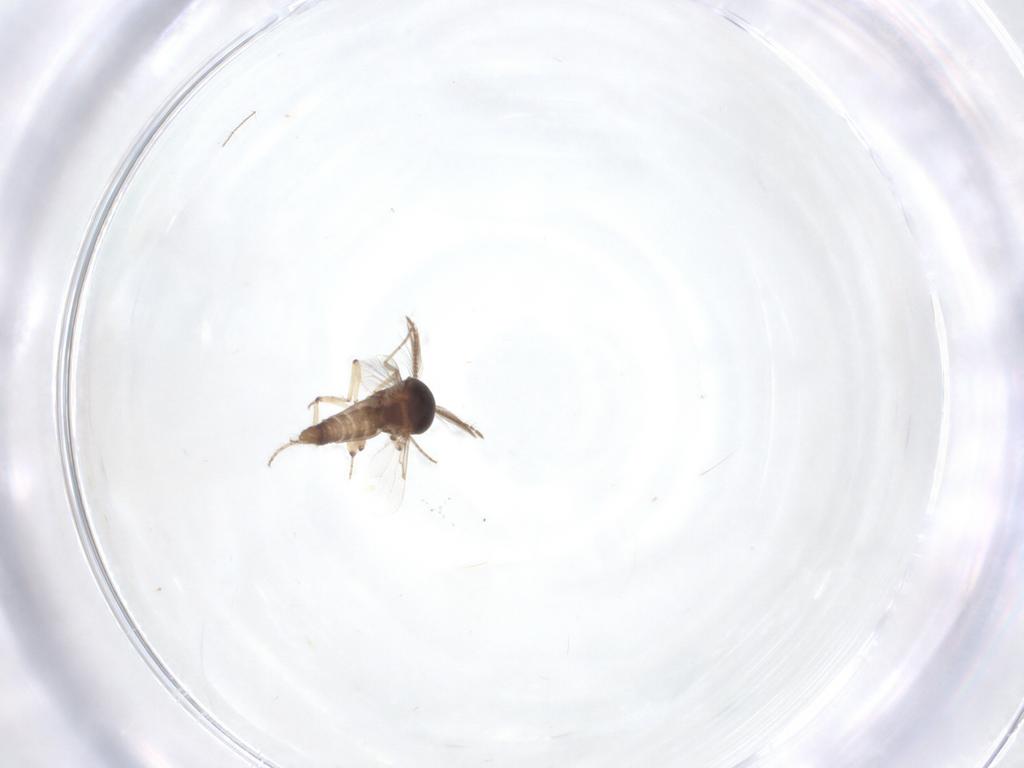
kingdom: Animalia
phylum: Arthropoda
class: Insecta
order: Diptera
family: Ceratopogonidae
